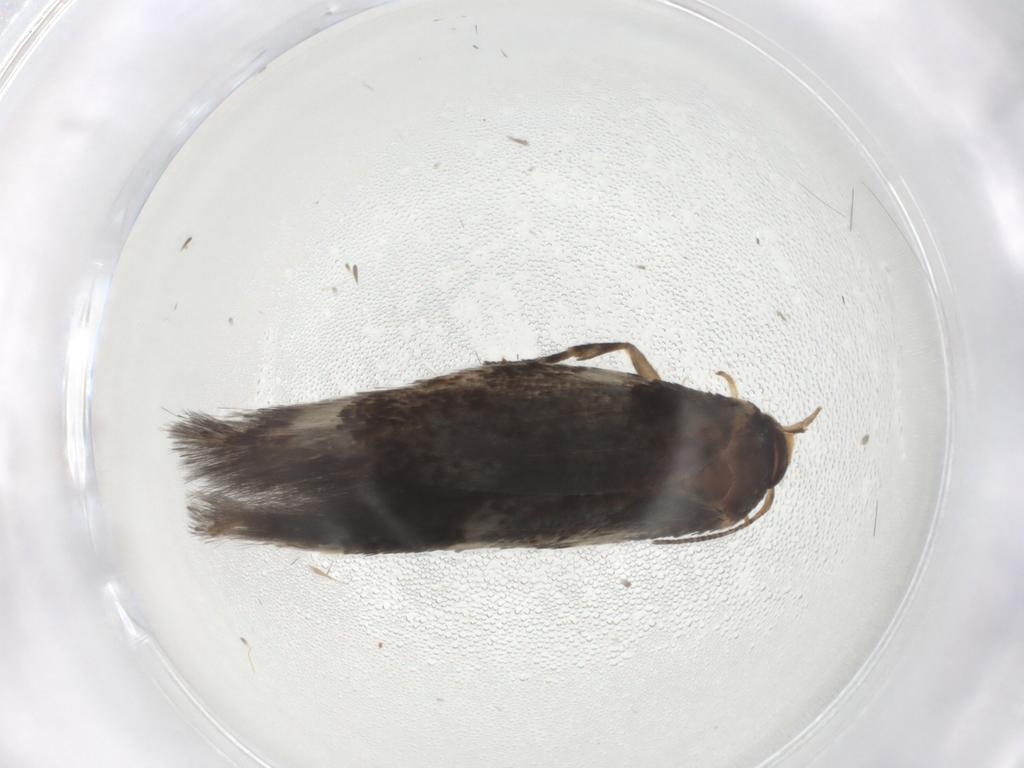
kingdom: Animalia
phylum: Arthropoda
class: Insecta
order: Lepidoptera
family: Elachistidae
